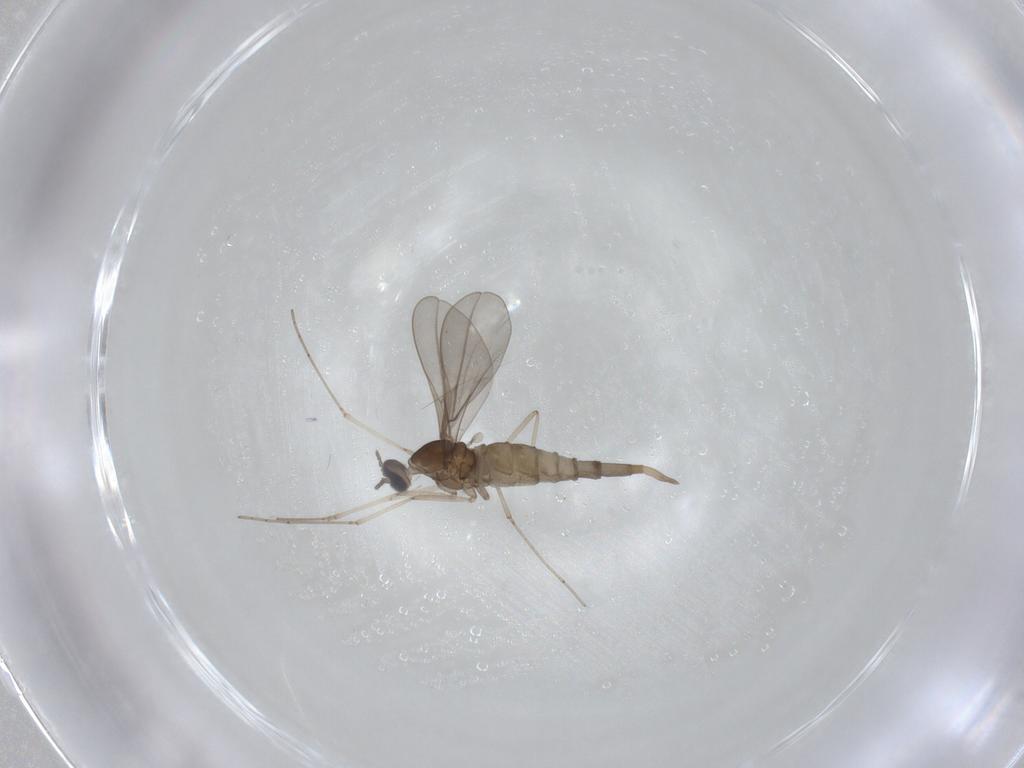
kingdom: Animalia
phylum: Arthropoda
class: Insecta
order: Diptera
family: Cecidomyiidae
